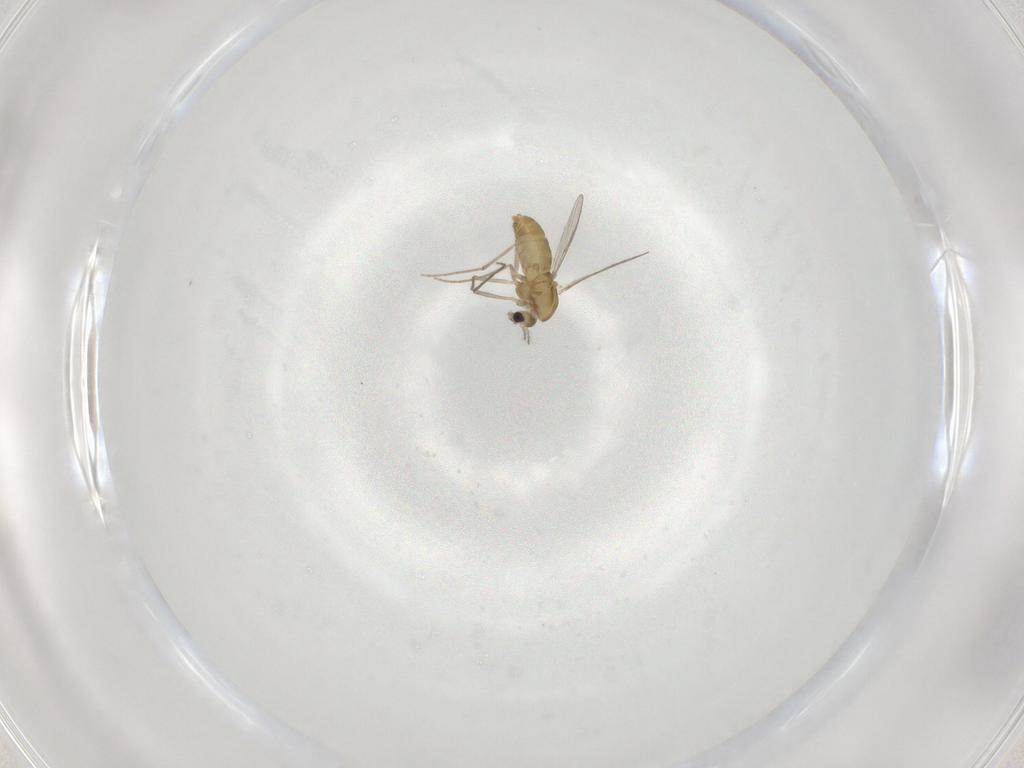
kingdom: Animalia
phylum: Arthropoda
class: Insecta
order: Diptera
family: Chironomidae
